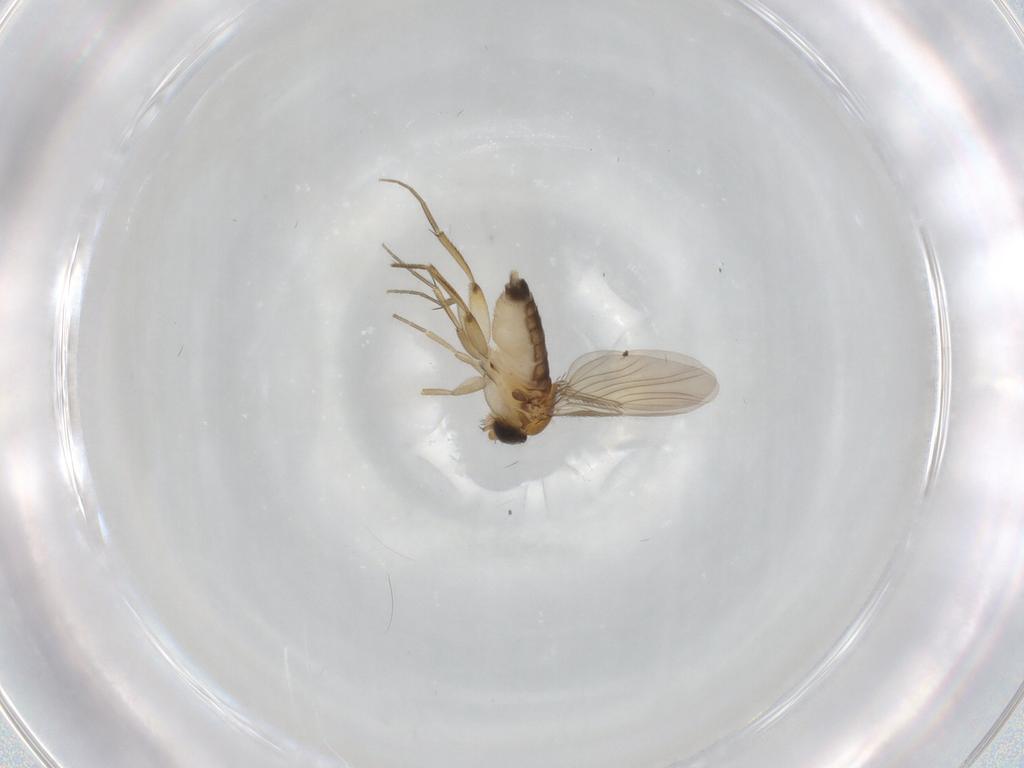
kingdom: Animalia
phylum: Arthropoda
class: Insecta
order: Diptera
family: Phoridae
